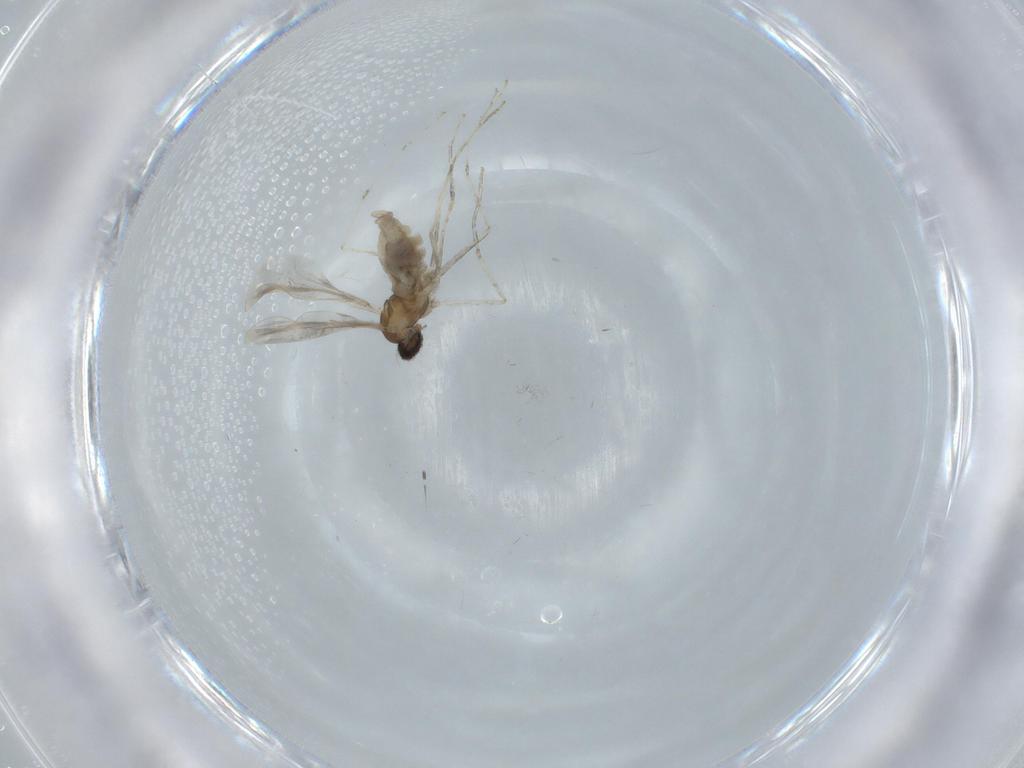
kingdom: Animalia
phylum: Arthropoda
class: Insecta
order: Diptera
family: Cecidomyiidae
